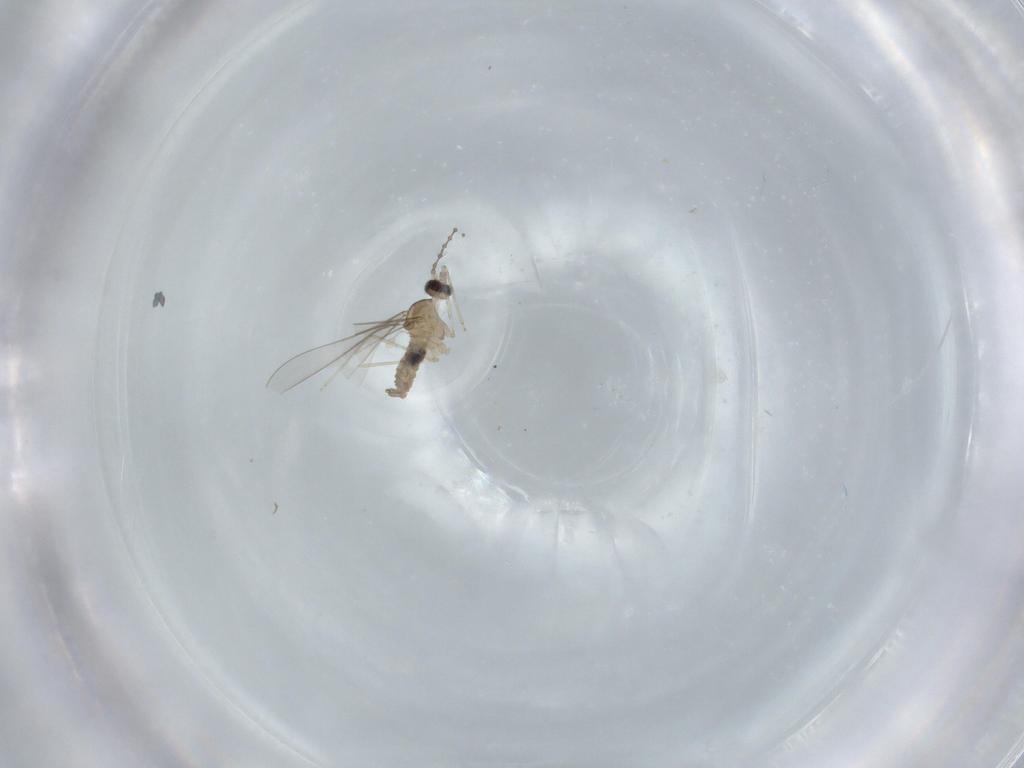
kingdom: Animalia
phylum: Arthropoda
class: Insecta
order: Diptera
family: Cecidomyiidae
